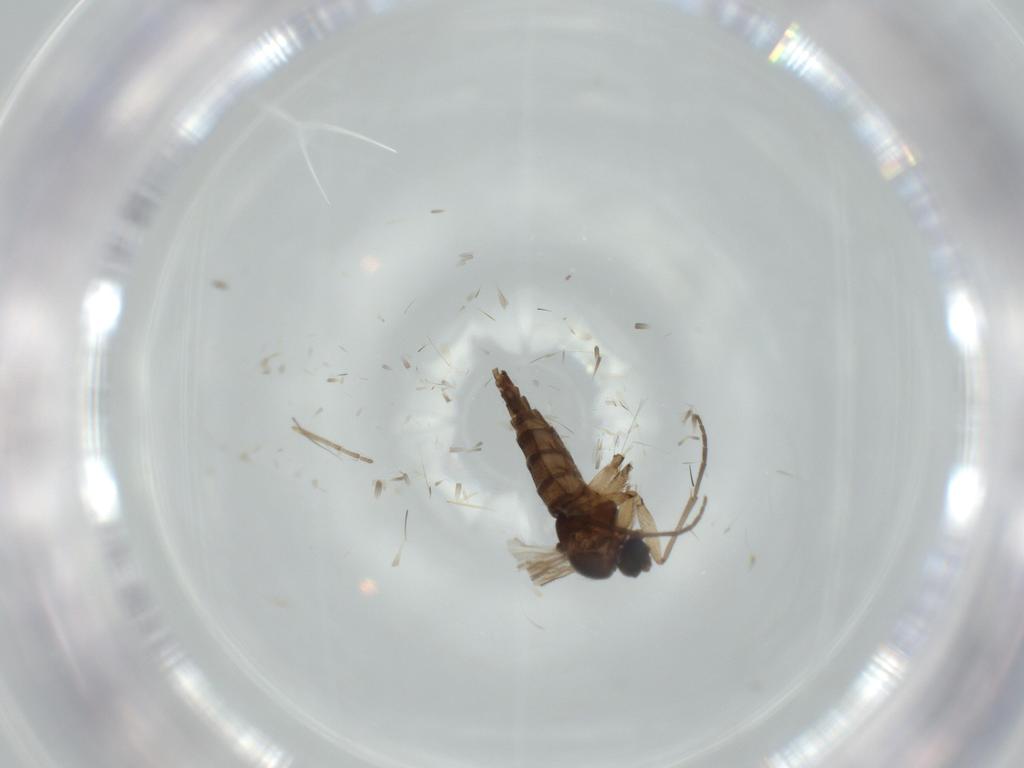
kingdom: Animalia
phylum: Arthropoda
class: Insecta
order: Diptera
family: Sciaridae
